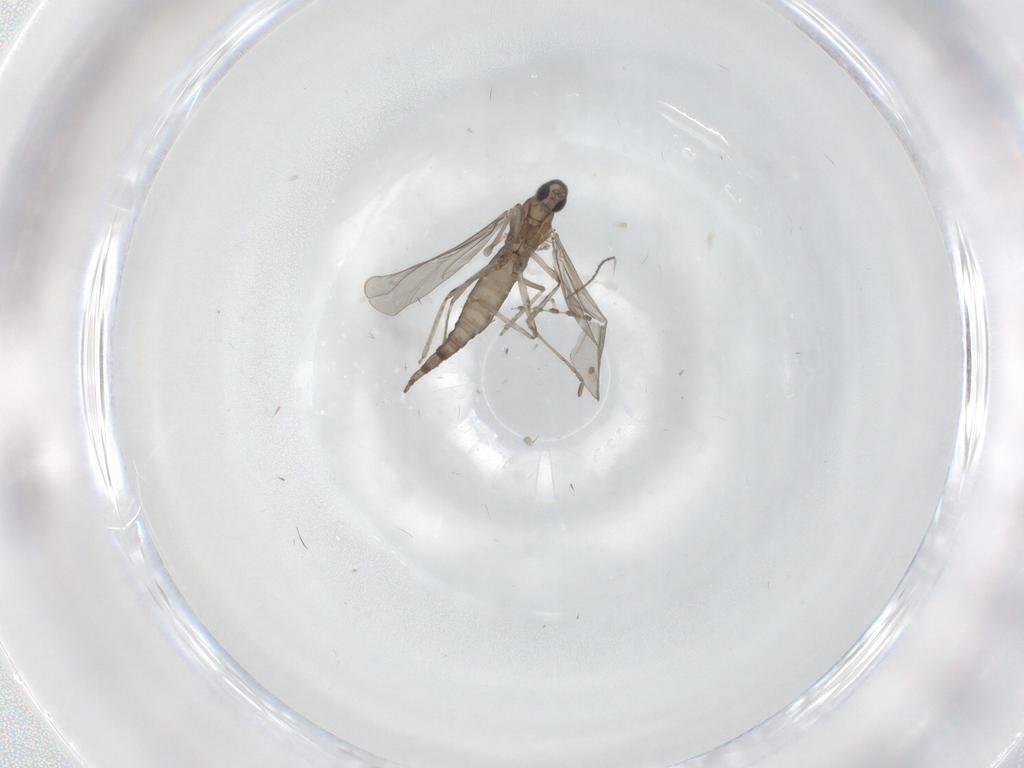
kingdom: Animalia
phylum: Arthropoda
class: Insecta
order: Diptera
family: Cecidomyiidae
